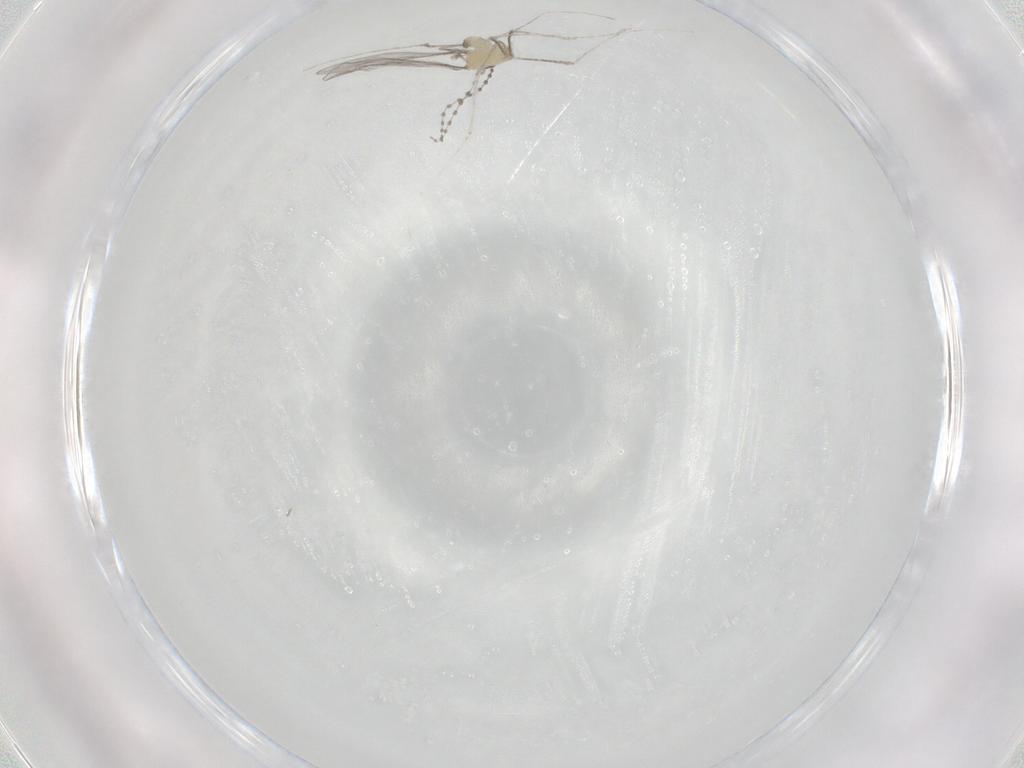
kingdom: Animalia
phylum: Arthropoda
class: Insecta
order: Diptera
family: Cecidomyiidae
